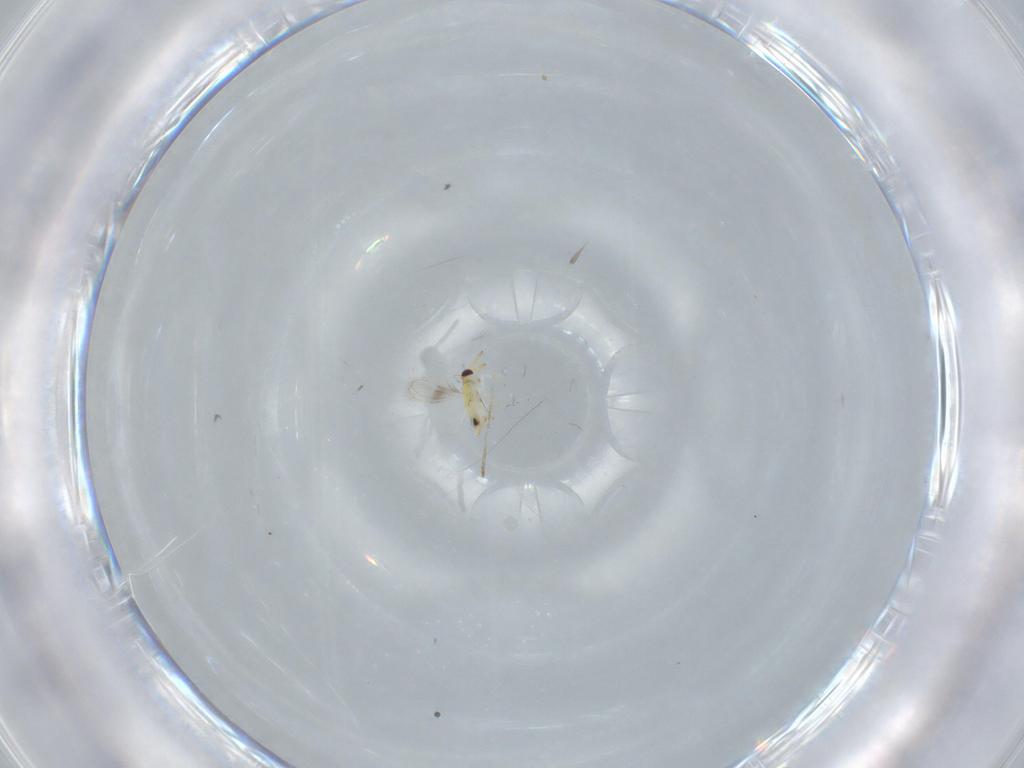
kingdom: Animalia
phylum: Arthropoda
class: Insecta
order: Hymenoptera
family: Aphelinidae
